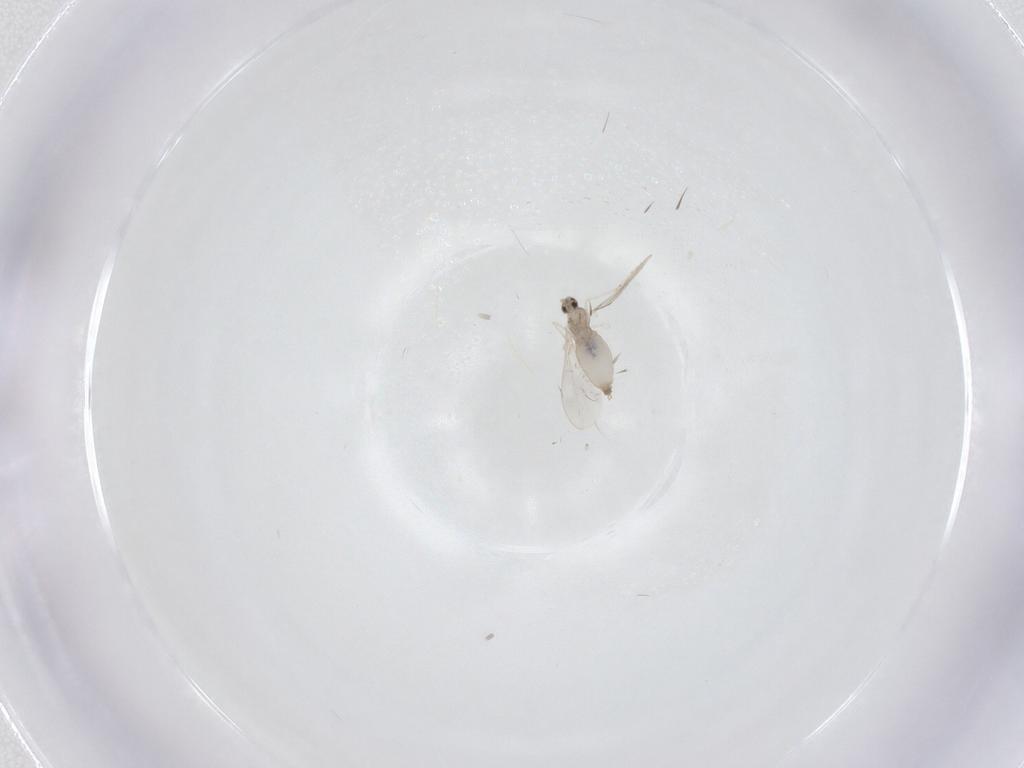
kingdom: Animalia
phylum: Arthropoda
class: Insecta
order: Diptera
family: Cecidomyiidae
